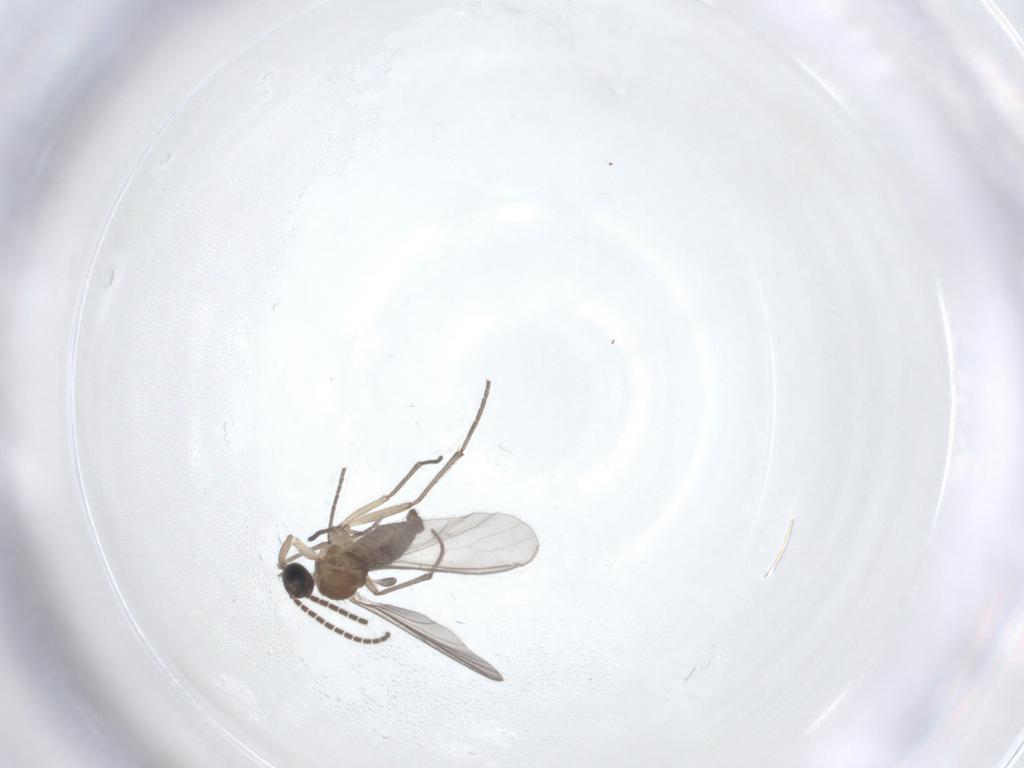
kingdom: Animalia
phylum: Arthropoda
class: Insecta
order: Diptera
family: Sciaridae
